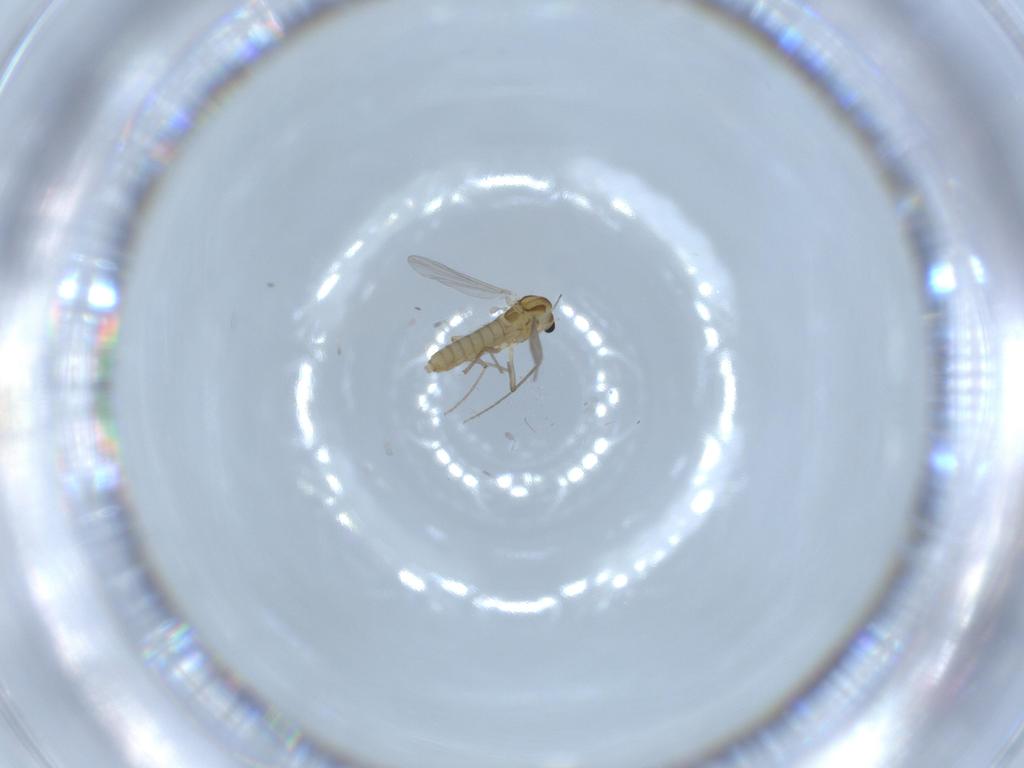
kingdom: Animalia
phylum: Arthropoda
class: Insecta
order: Diptera
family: Chironomidae
